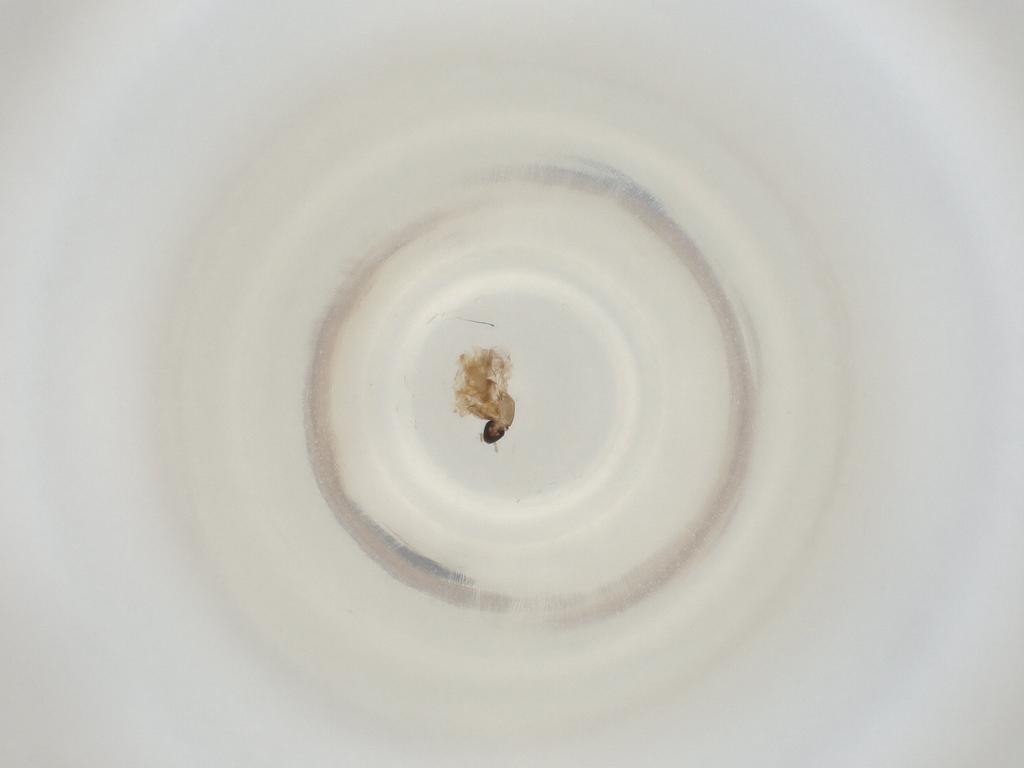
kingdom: Animalia
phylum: Arthropoda
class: Insecta
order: Diptera
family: Cecidomyiidae
